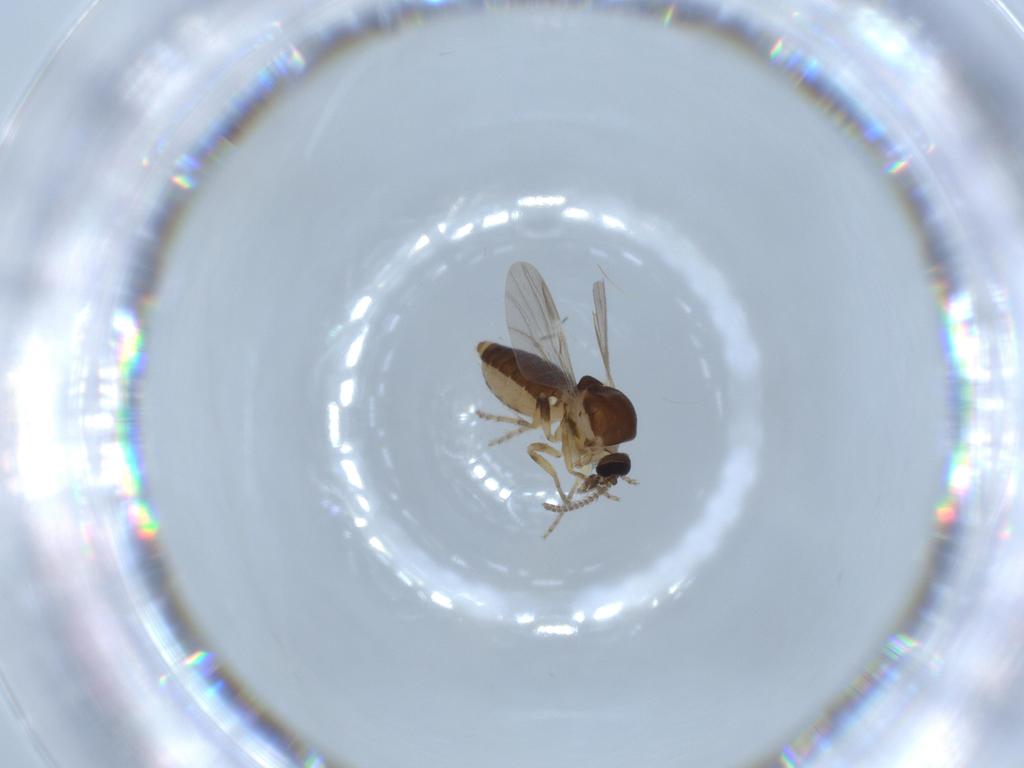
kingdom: Animalia
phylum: Arthropoda
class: Insecta
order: Diptera
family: Ceratopogonidae
